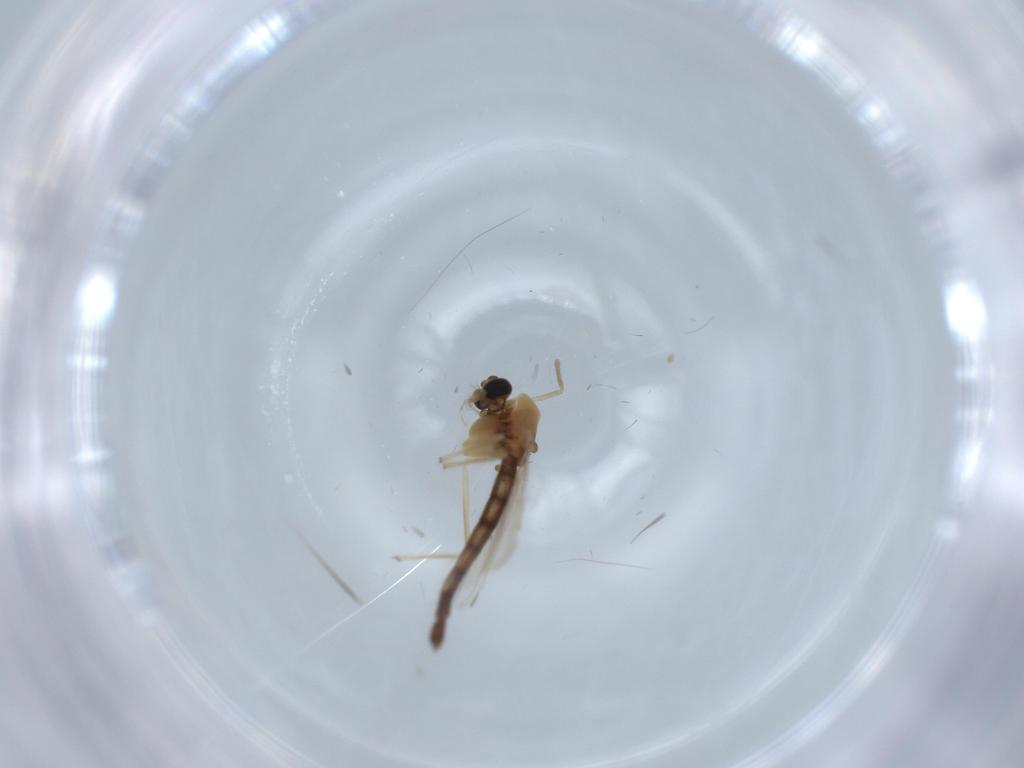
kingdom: Animalia
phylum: Arthropoda
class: Insecta
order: Diptera
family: Chironomidae
